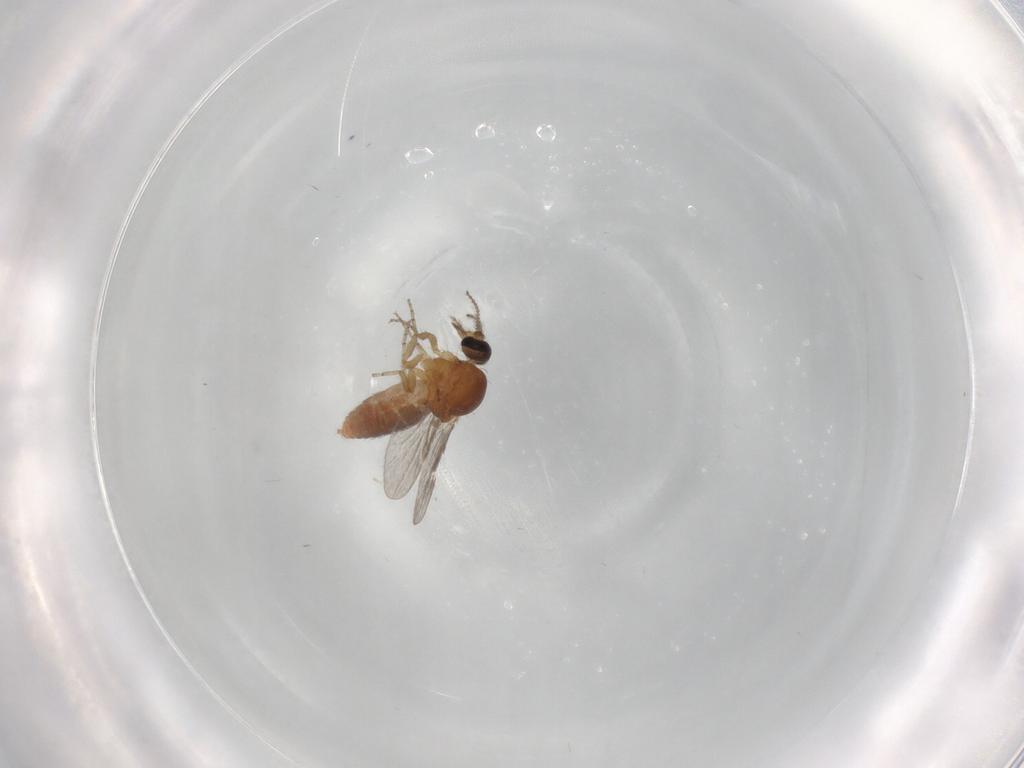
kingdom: Animalia
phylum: Arthropoda
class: Insecta
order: Diptera
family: Ceratopogonidae
